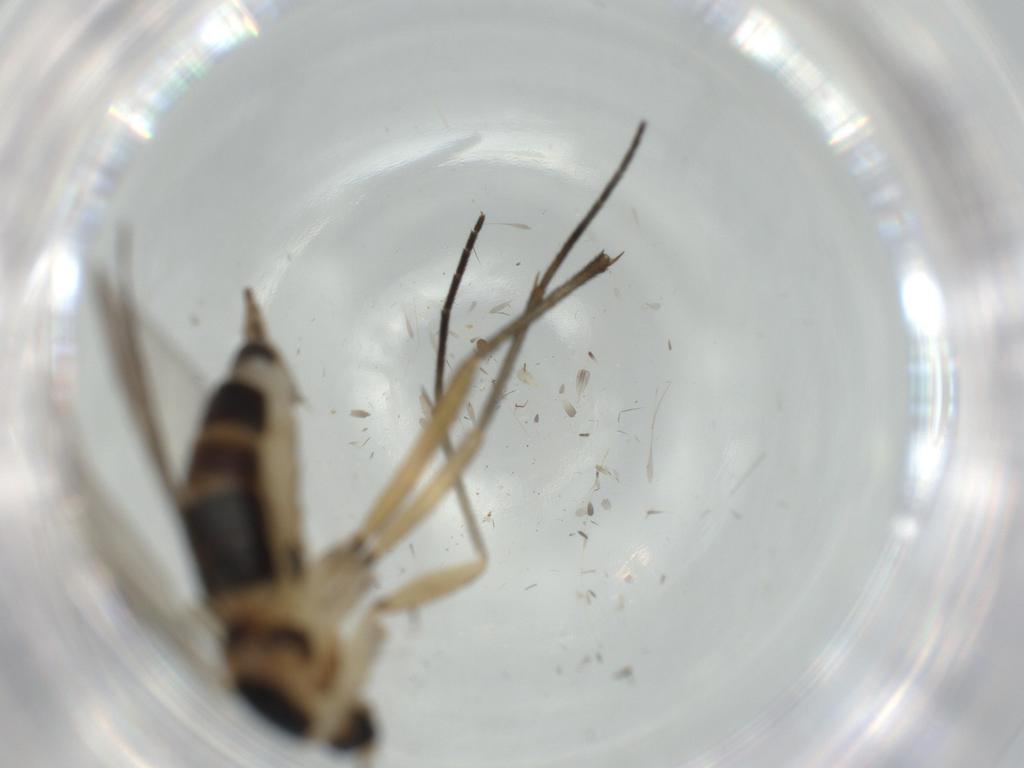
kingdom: Animalia
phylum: Arthropoda
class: Insecta
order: Diptera
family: Sciaridae
